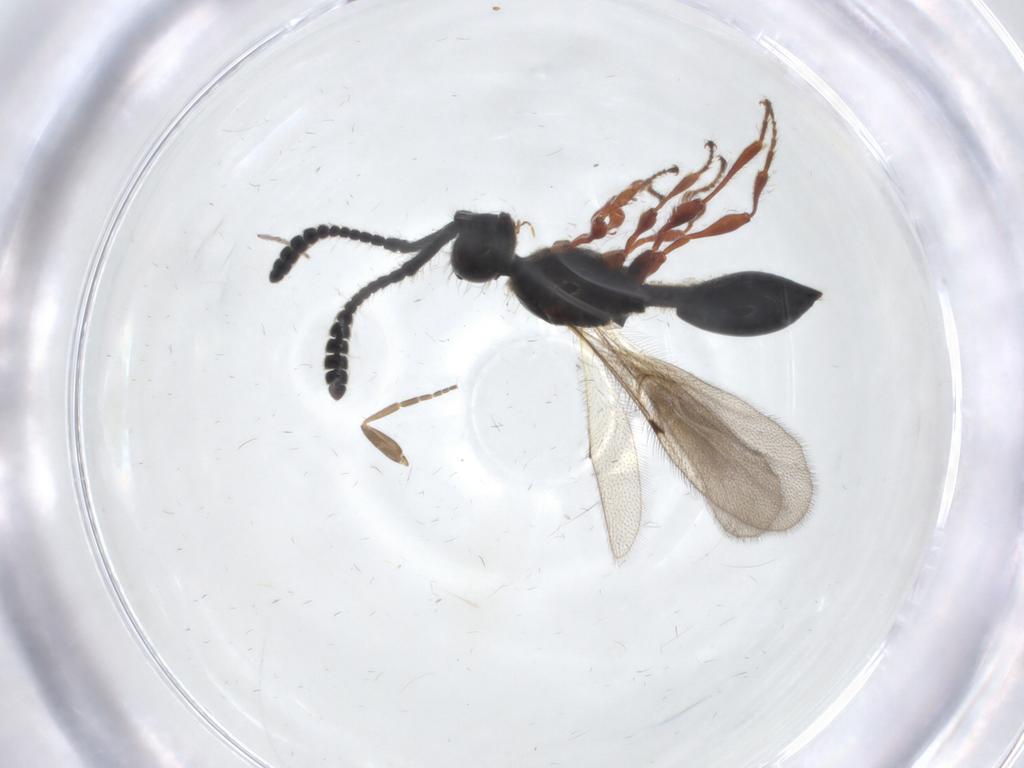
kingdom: Animalia
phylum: Arthropoda
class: Insecta
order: Hymenoptera
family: Diapriidae
